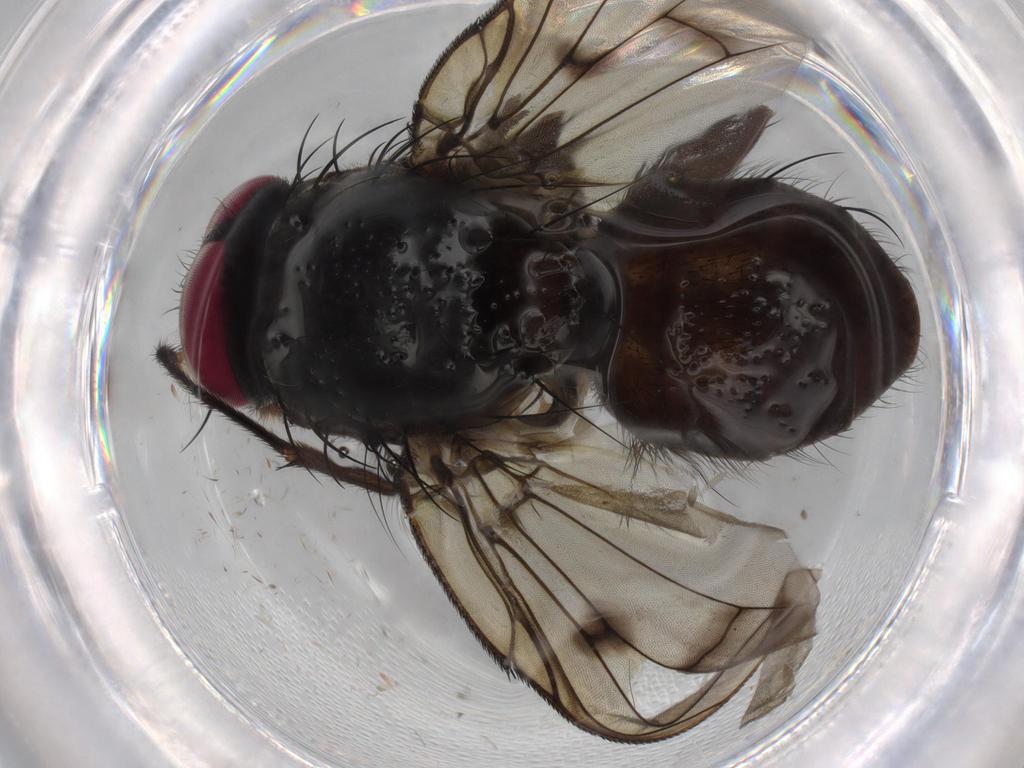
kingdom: Animalia
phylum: Arthropoda
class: Insecta
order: Diptera
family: Muscidae
